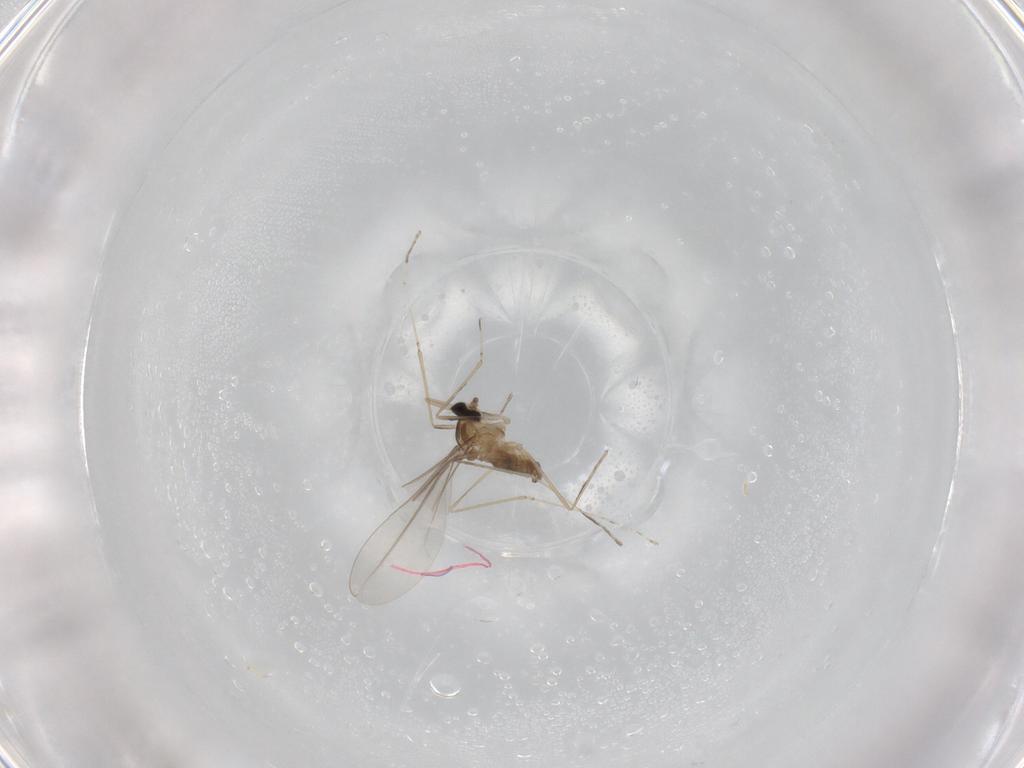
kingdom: Animalia
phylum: Arthropoda
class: Insecta
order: Diptera
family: Cecidomyiidae
